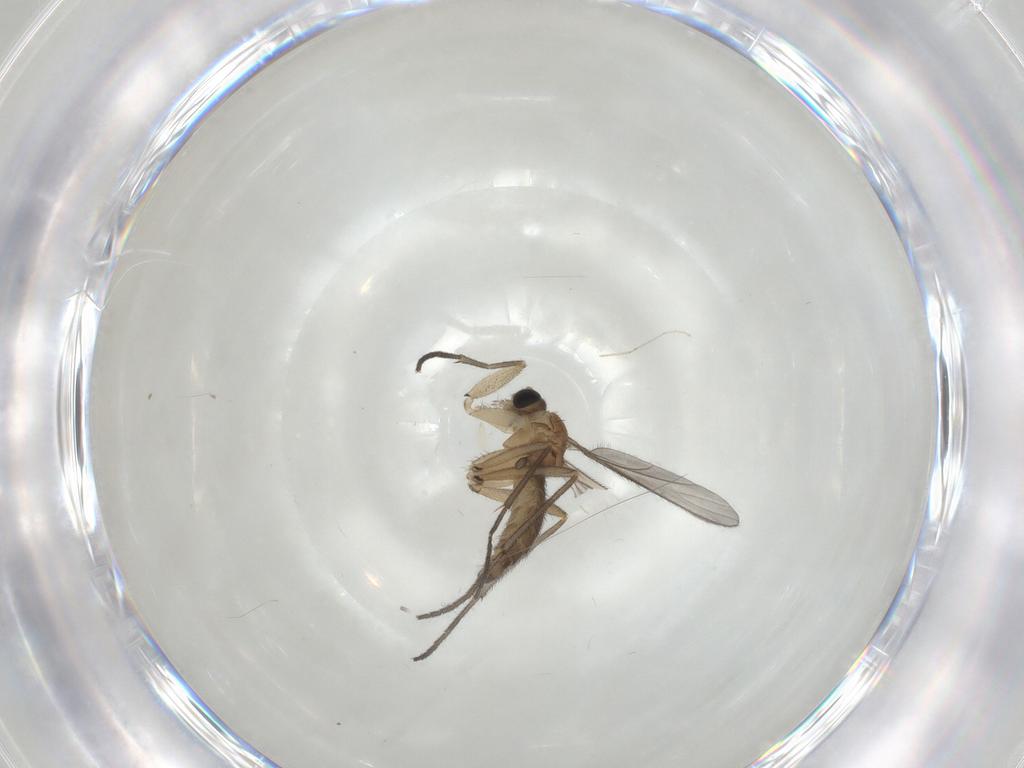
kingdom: Animalia
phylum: Arthropoda
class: Insecta
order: Diptera
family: Sciaridae
